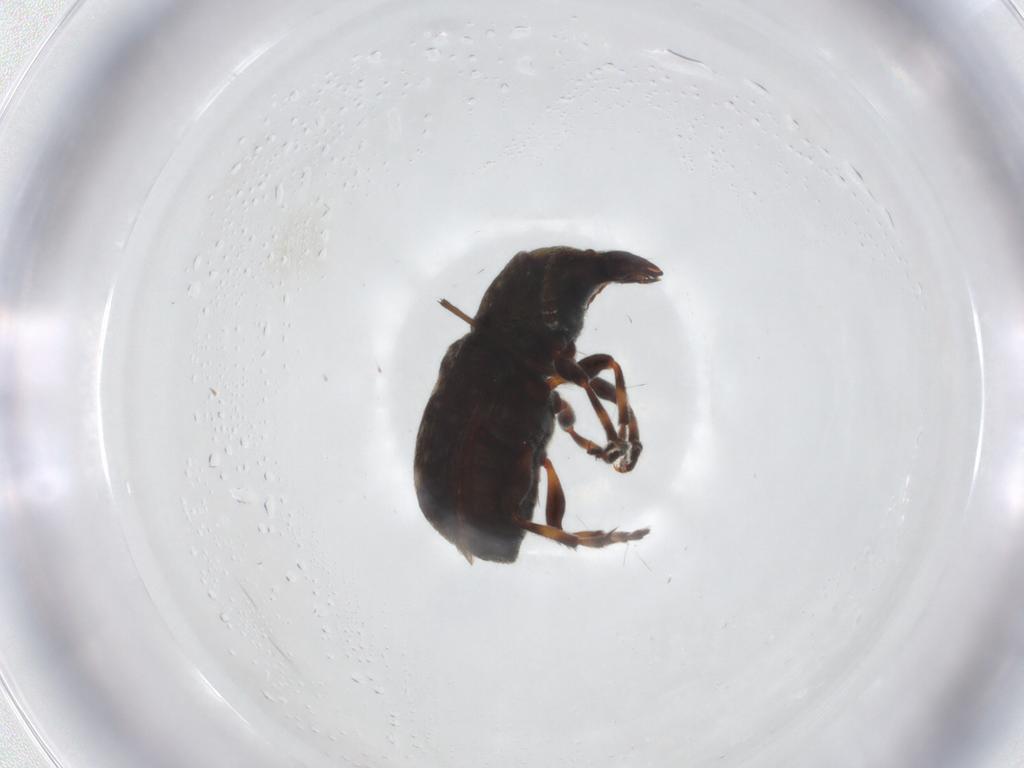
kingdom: Animalia
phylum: Arthropoda
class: Insecta
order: Coleoptera
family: Anthribidae
